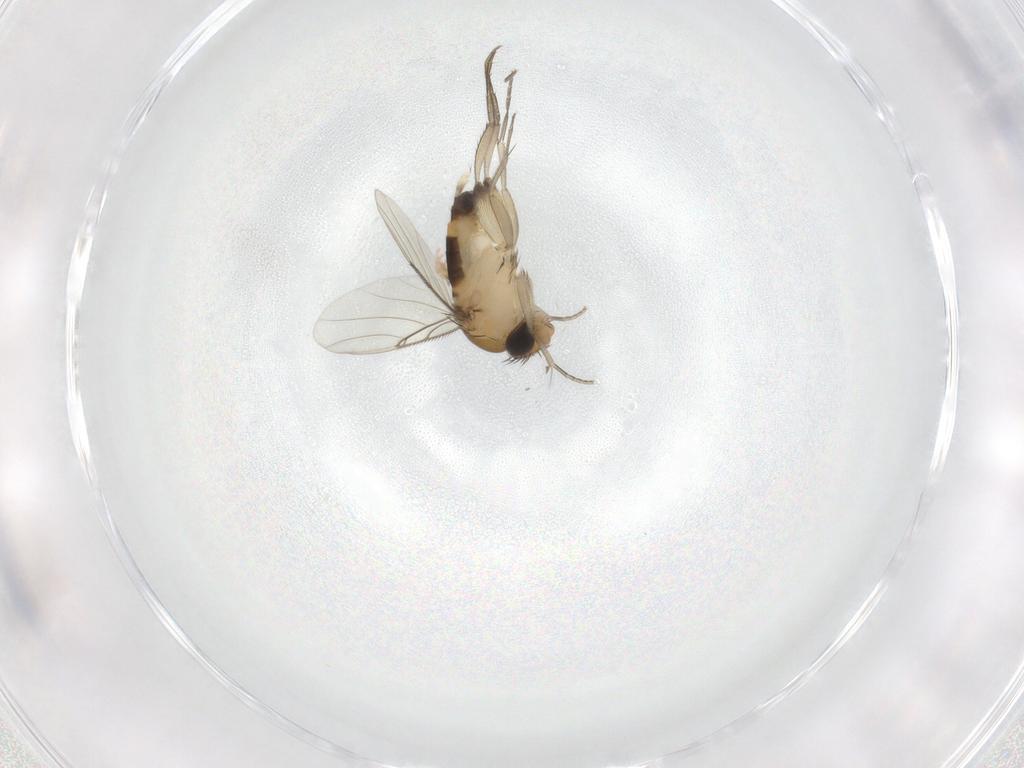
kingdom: Animalia
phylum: Arthropoda
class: Insecta
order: Diptera
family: Phoridae
